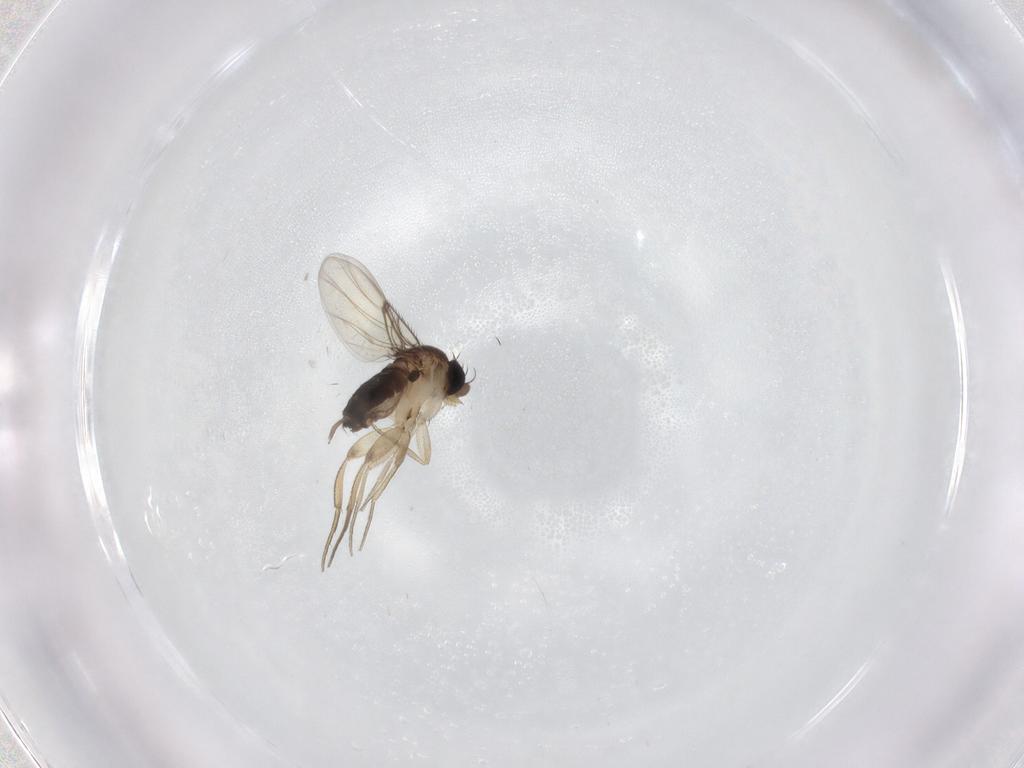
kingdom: Animalia
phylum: Arthropoda
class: Insecta
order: Diptera
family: Phoridae
